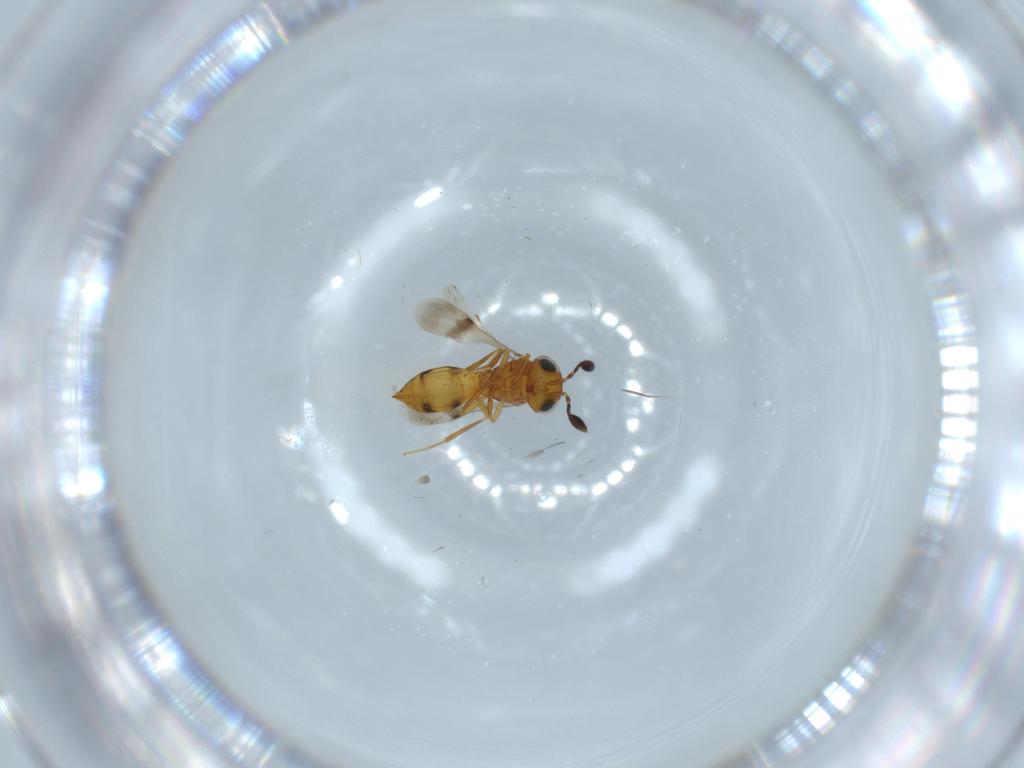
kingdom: Animalia
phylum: Arthropoda
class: Insecta
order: Hymenoptera
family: Scelionidae
